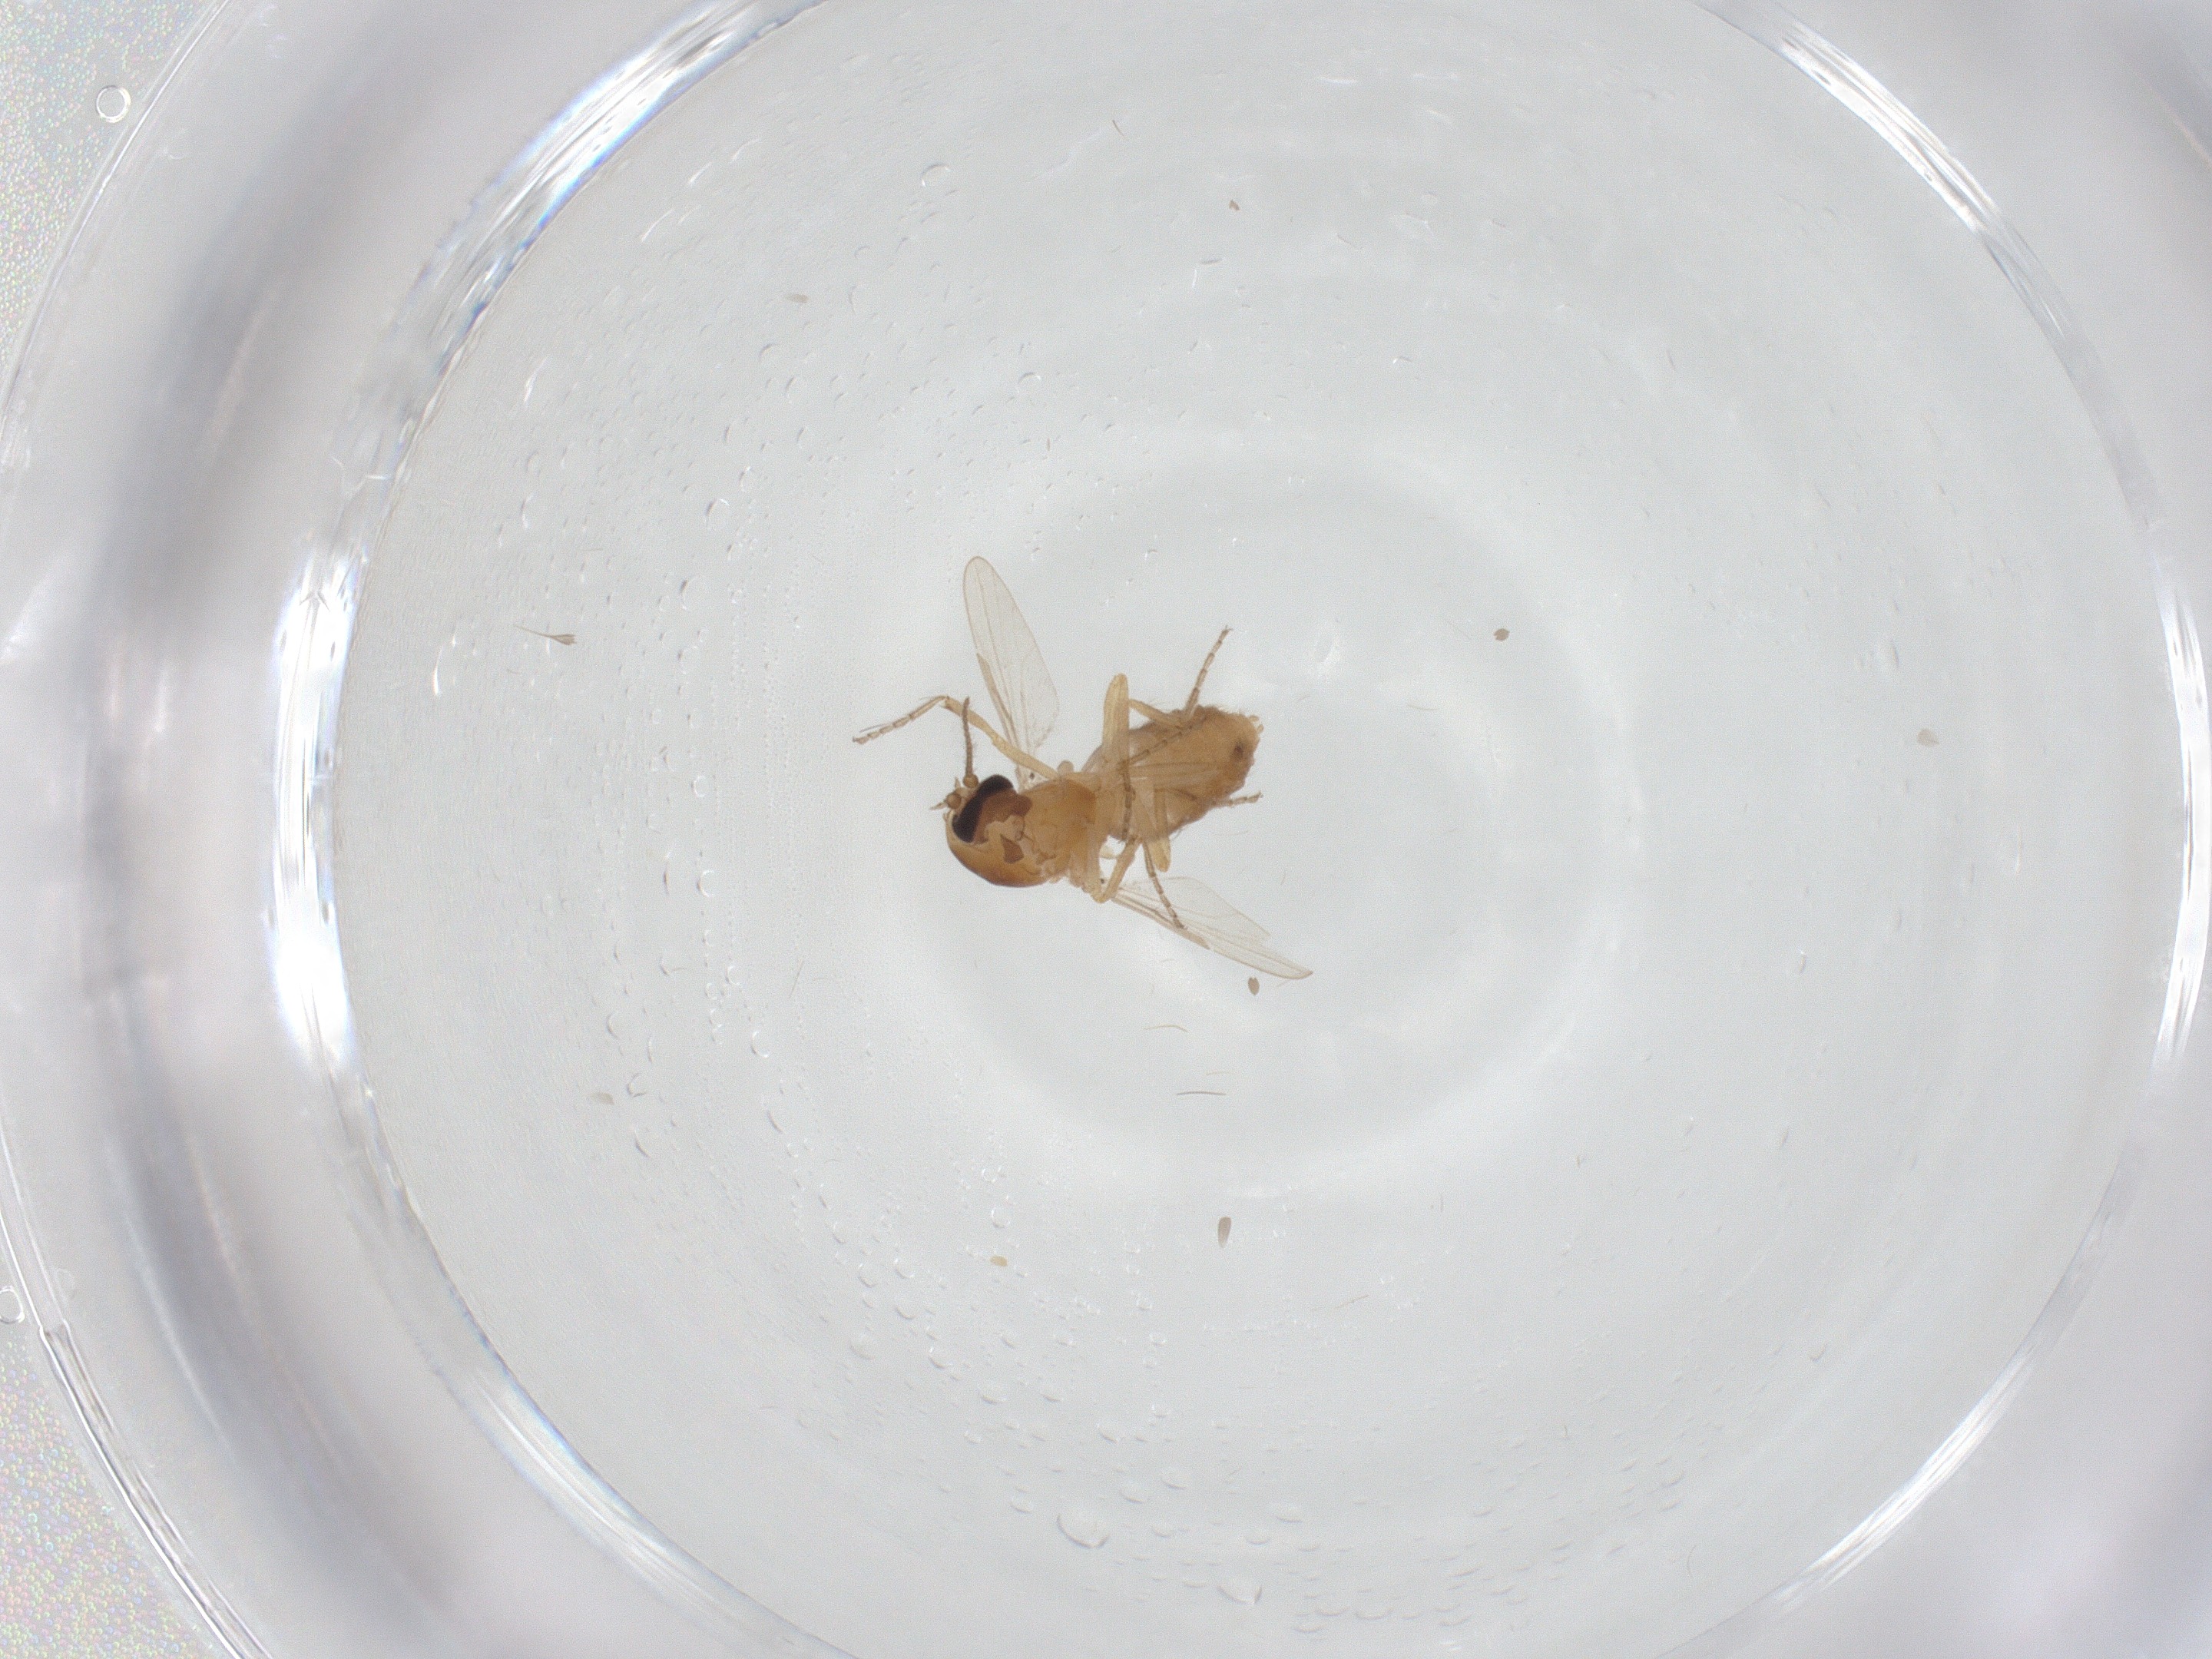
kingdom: Animalia
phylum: Arthropoda
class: Insecta
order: Diptera
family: Ceratopogonidae
